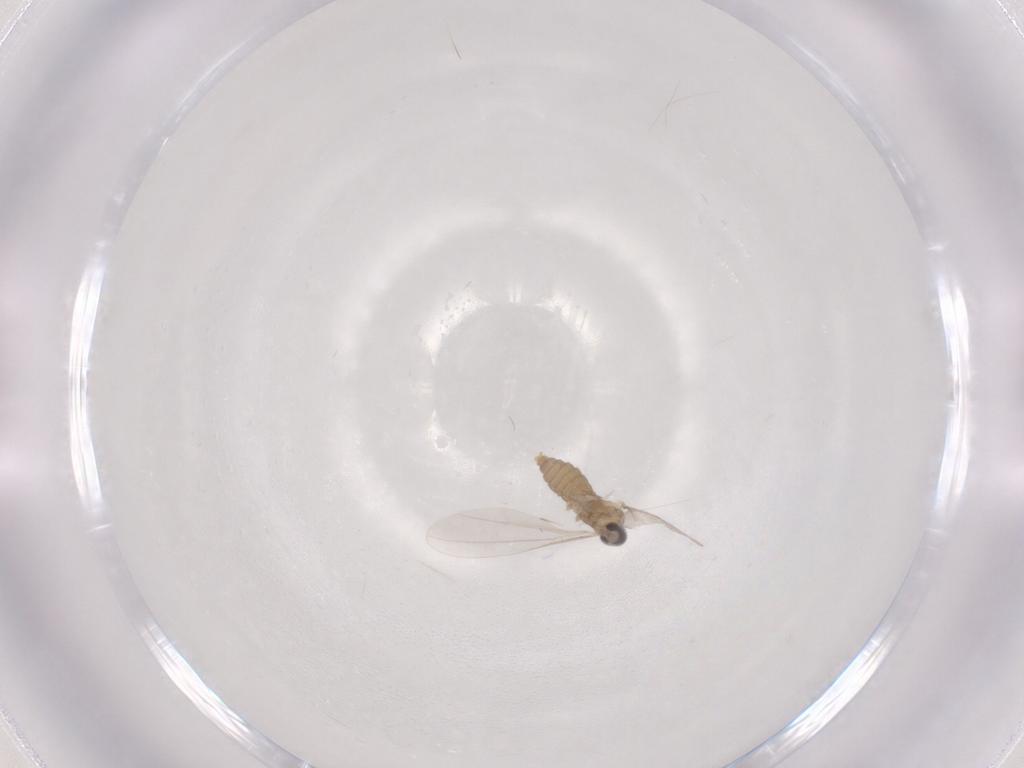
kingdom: Animalia
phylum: Arthropoda
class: Insecta
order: Diptera
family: Cecidomyiidae
